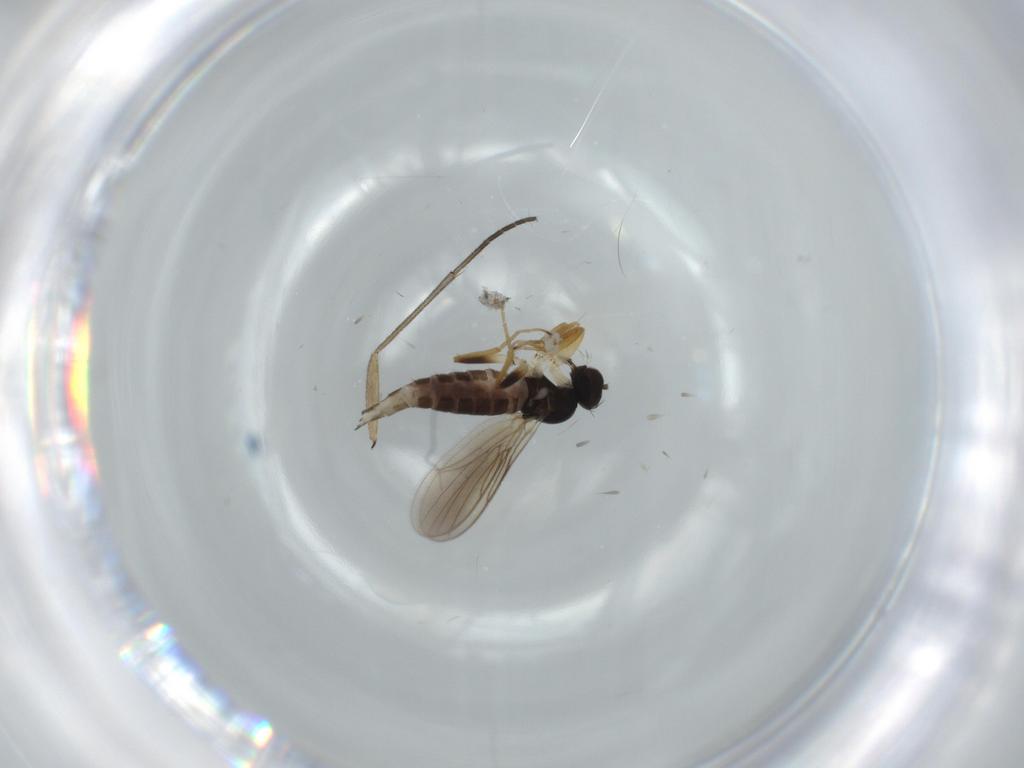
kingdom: Animalia
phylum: Arthropoda
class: Insecta
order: Diptera
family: Hybotidae
